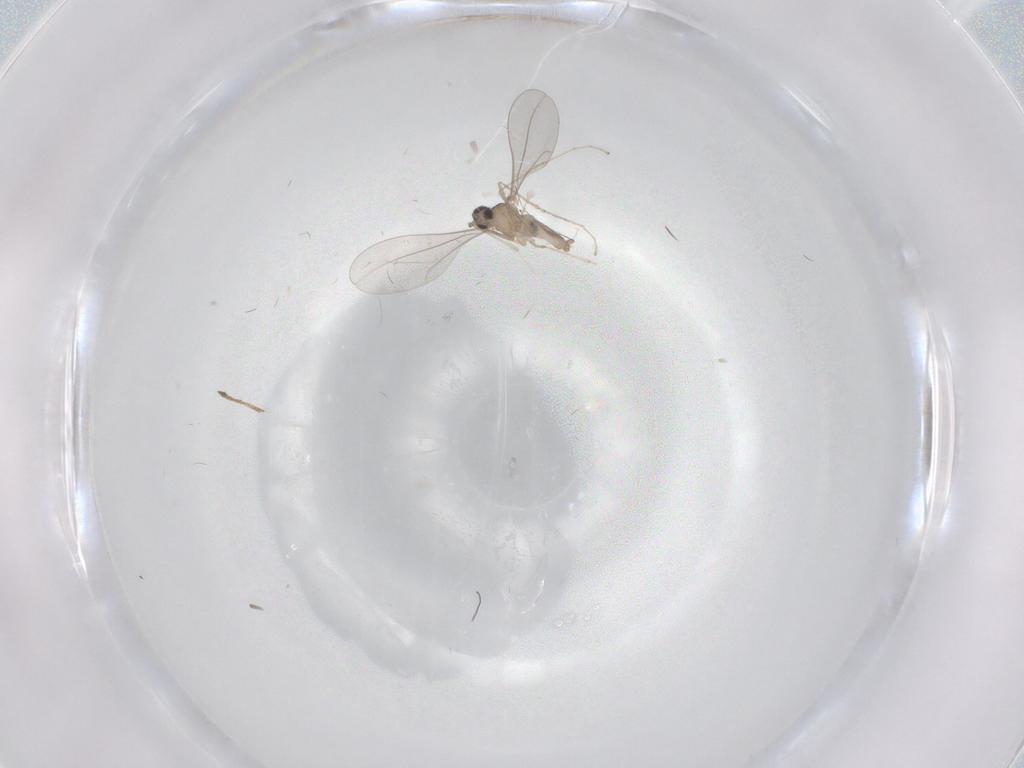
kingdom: Animalia
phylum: Arthropoda
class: Insecta
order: Diptera
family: Cecidomyiidae
